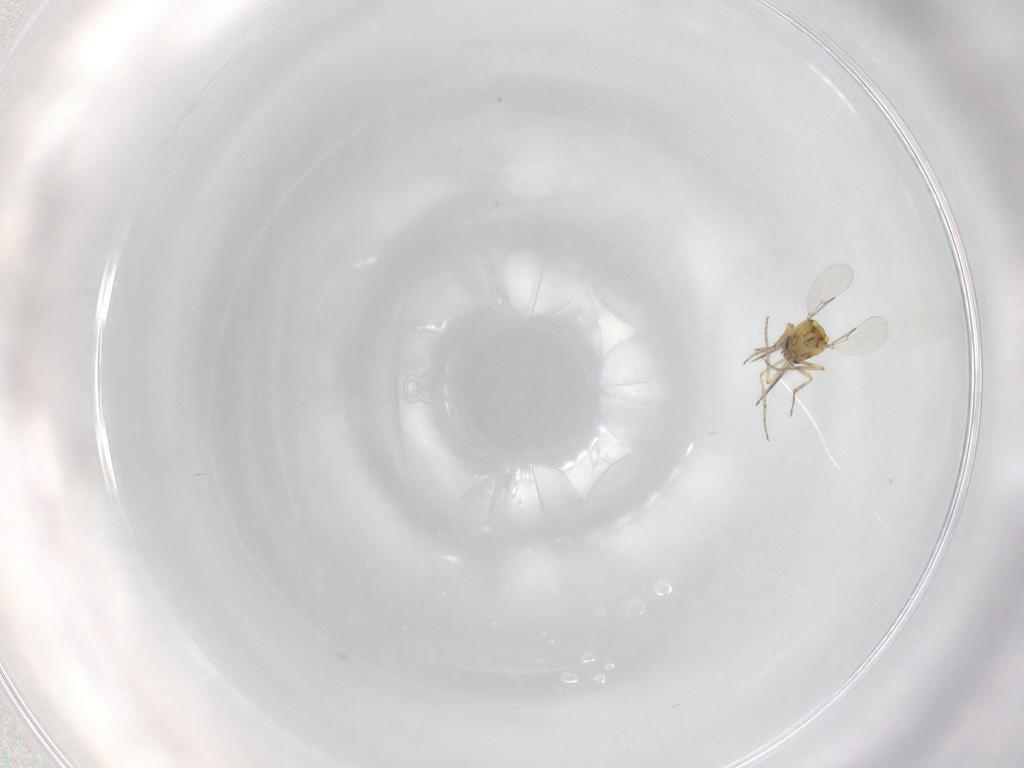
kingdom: Animalia
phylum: Arthropoda
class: Insecta
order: Diptera
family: Ceratopogonidae
